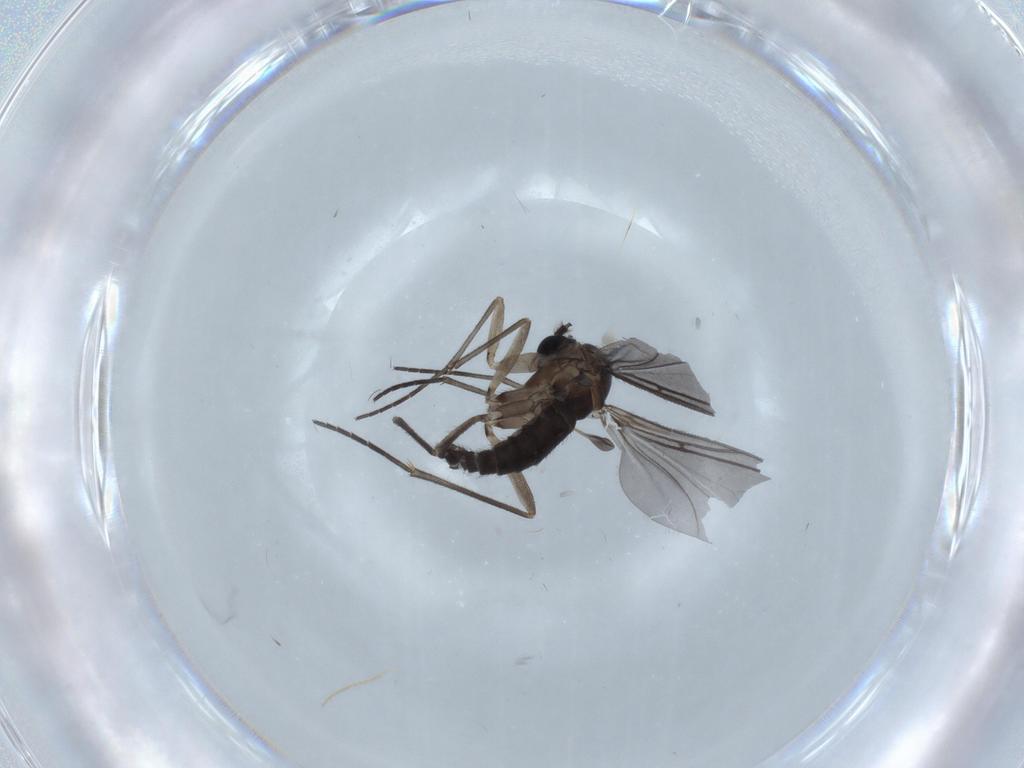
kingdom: Animalia
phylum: Arthropoda
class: Insecta
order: Diptera
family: Sciaridae
